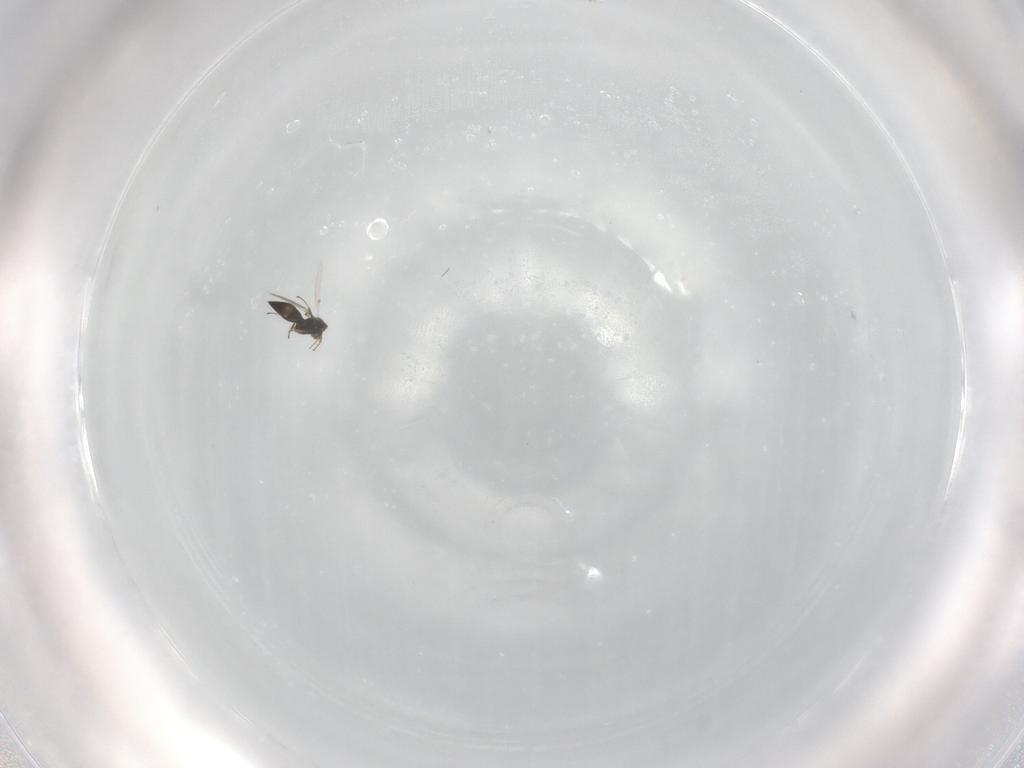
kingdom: Animalia
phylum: Arthropoda
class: Insecta
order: Hymenoptera
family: Scelionidae
